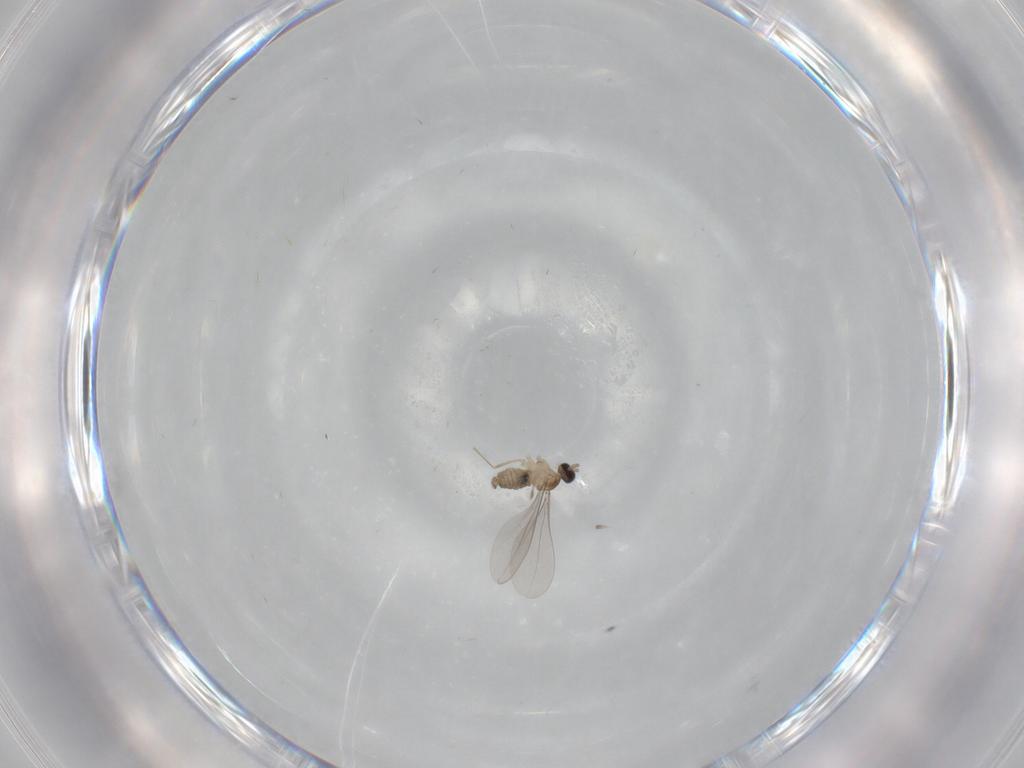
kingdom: Animalia
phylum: Arthropoda
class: Insecta
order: Diptera
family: Cecidomyiidae
